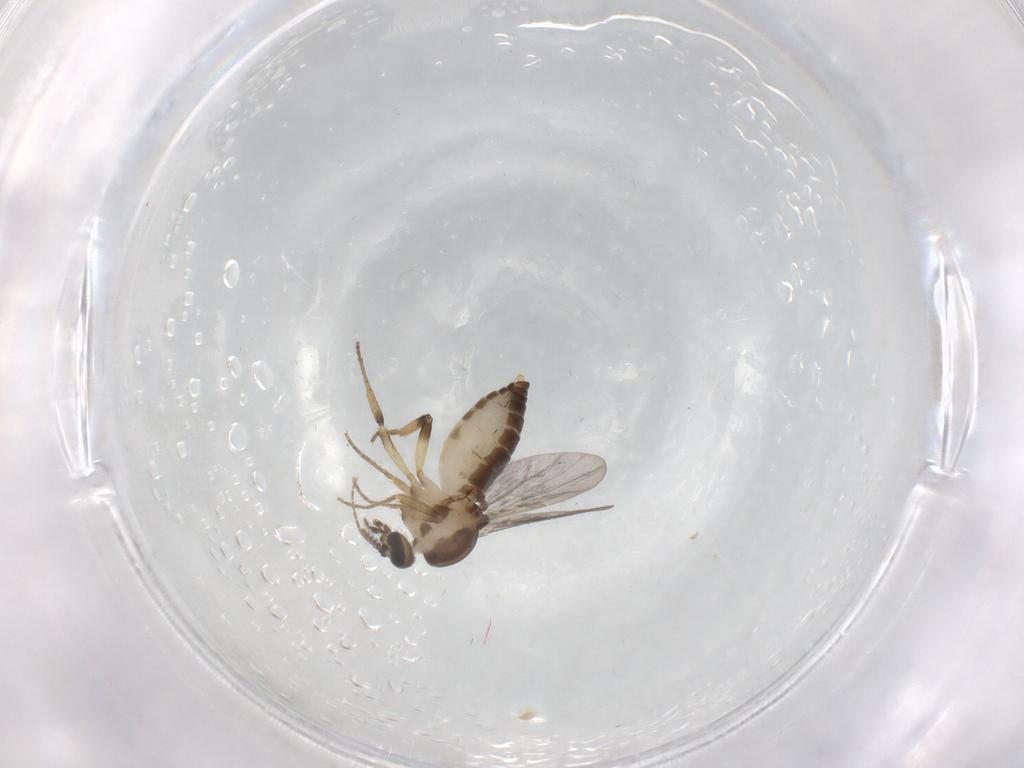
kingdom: Animalia
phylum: Arthropoda
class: Insecta
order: Diptera
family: Ceratopogonidae
